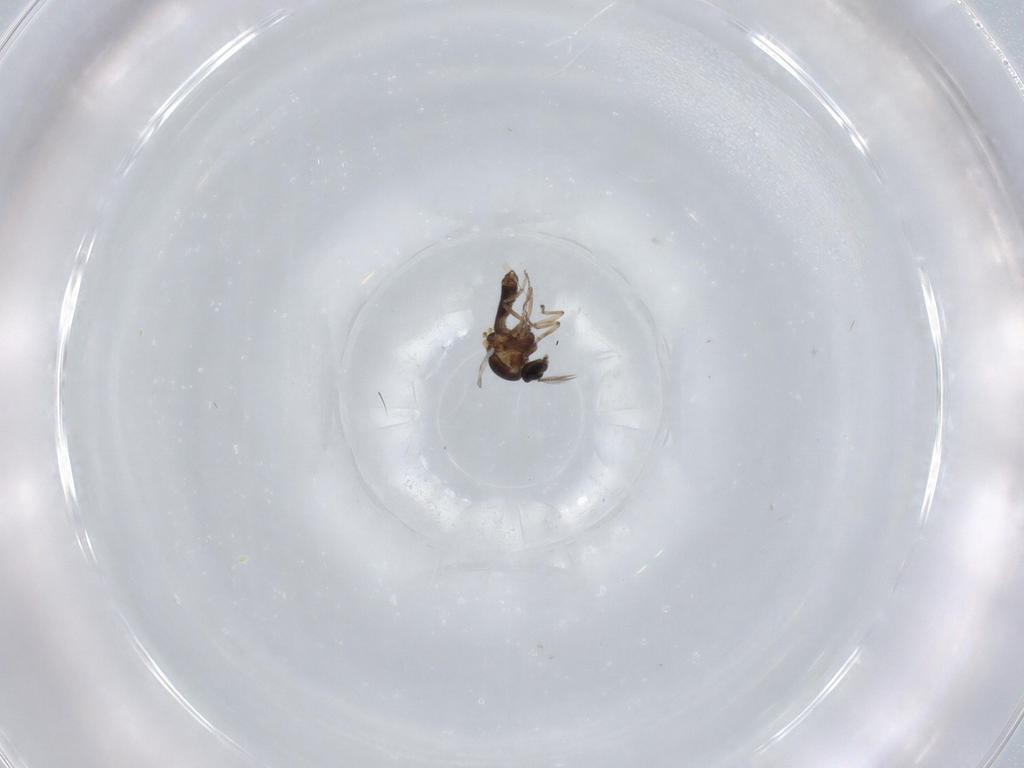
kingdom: Animalia
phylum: Arthropoda
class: Insecta
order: Diptera
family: Ceratopogonidae
